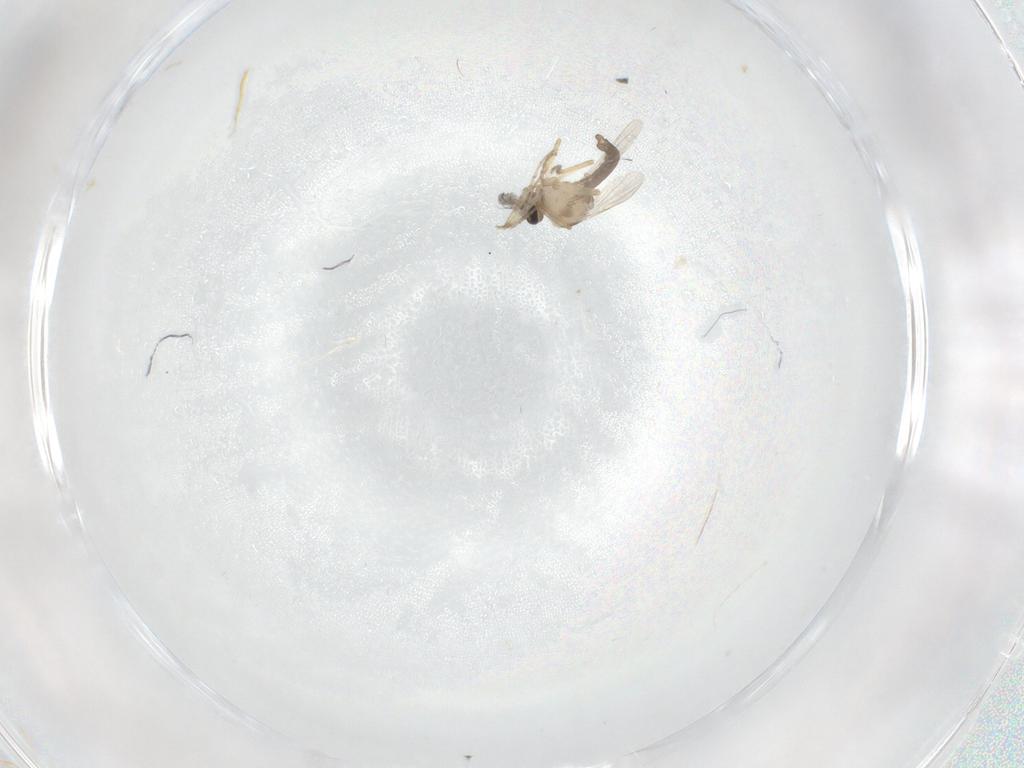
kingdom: Animalia
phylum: Arthropoda
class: Insecta
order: Diptera
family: Ceratopogonidae
